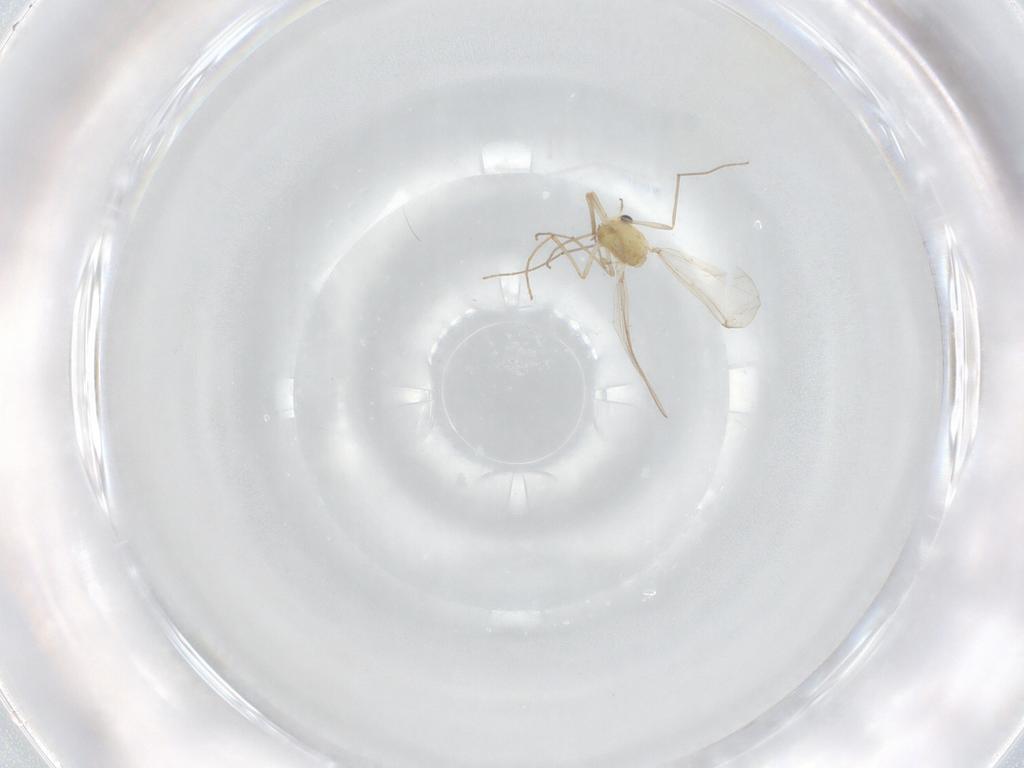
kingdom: Animalia
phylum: Arthropoda
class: Insecta
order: Diptera
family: Chironomidae
